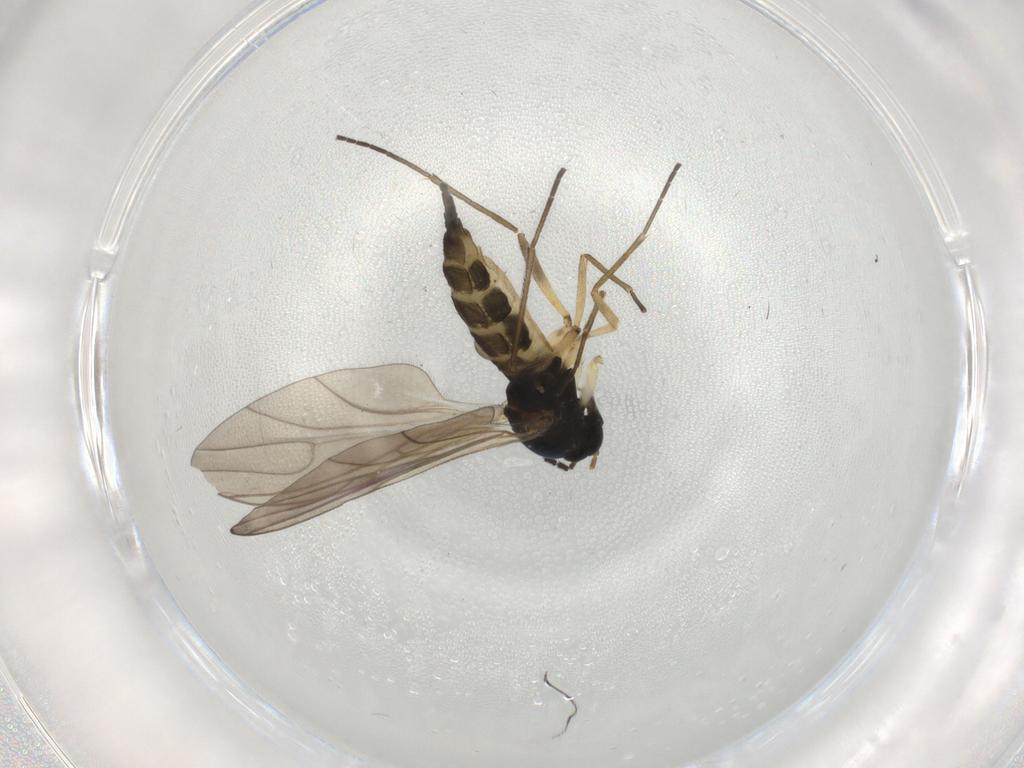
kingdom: Animalia
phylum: Arthropoda
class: Insecta
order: Diptera
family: Sciaridae
